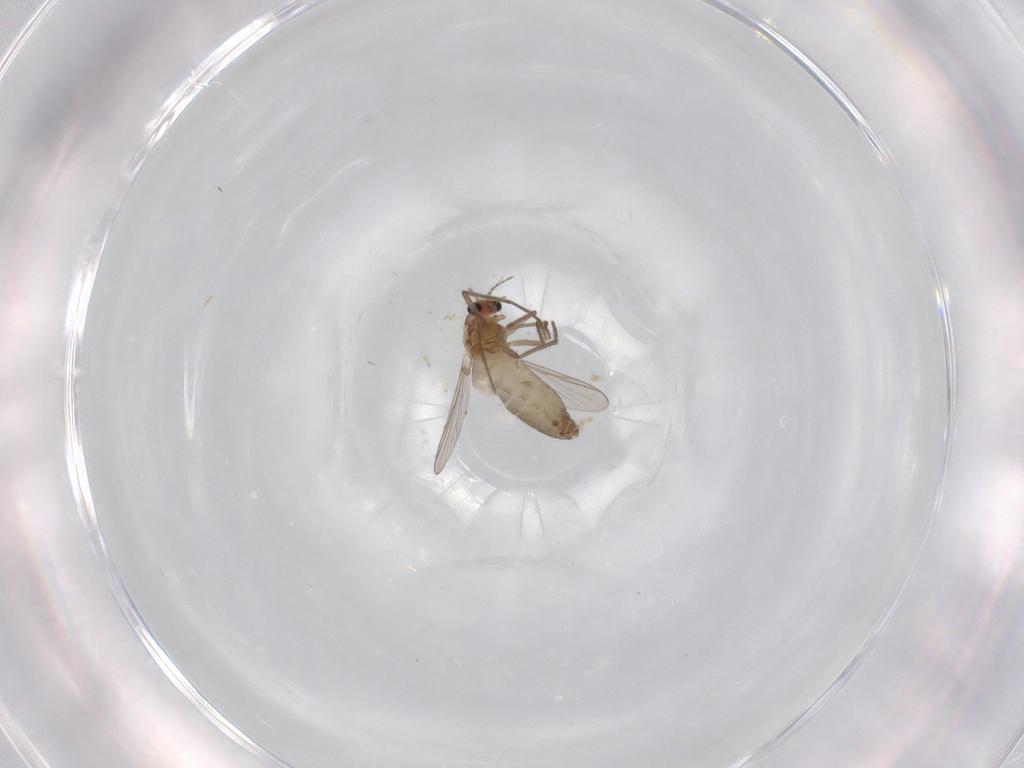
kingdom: Animalia
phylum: Arthropoda
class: Insecta
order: Diptera
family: Chironomidae
